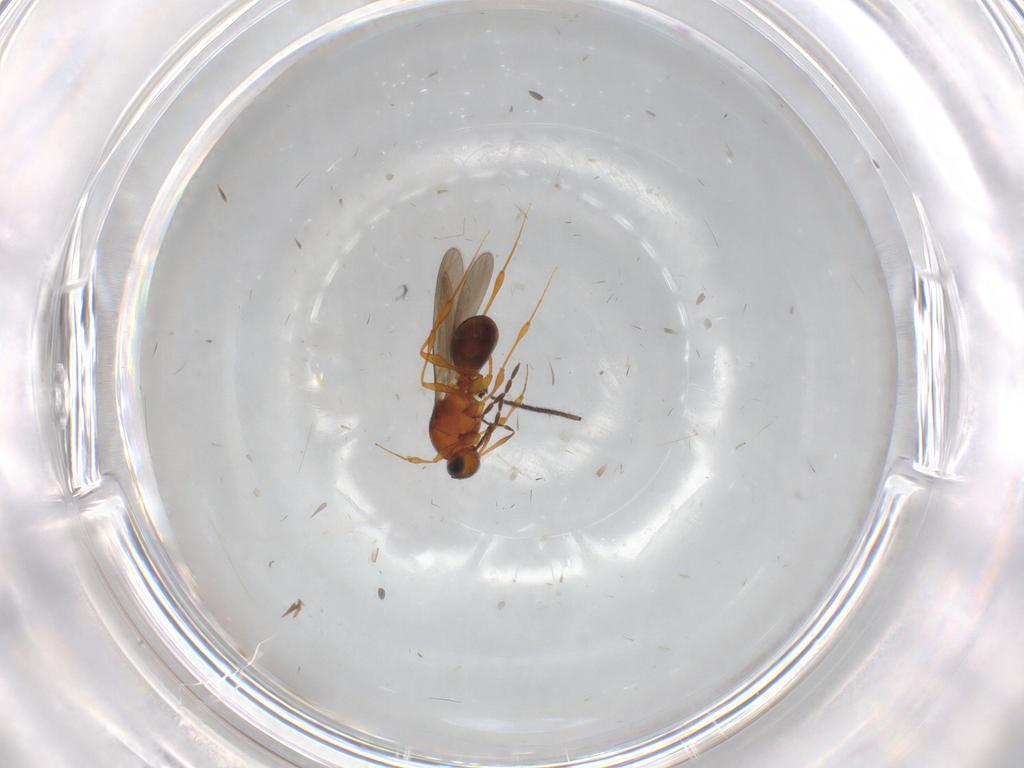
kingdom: Animalia
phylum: Arthropoda
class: Insecta
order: Hymenoptera
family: Platygastridae
